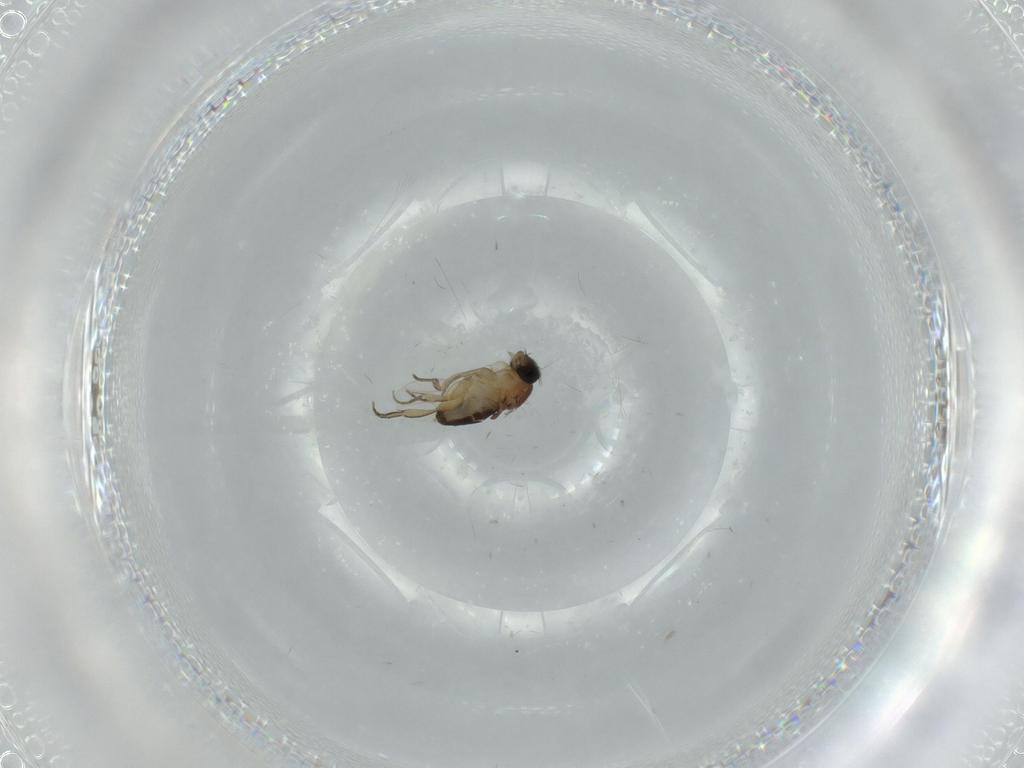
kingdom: Animalia
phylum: Arthropoda
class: Insecta
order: Diptera
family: Phoridae
